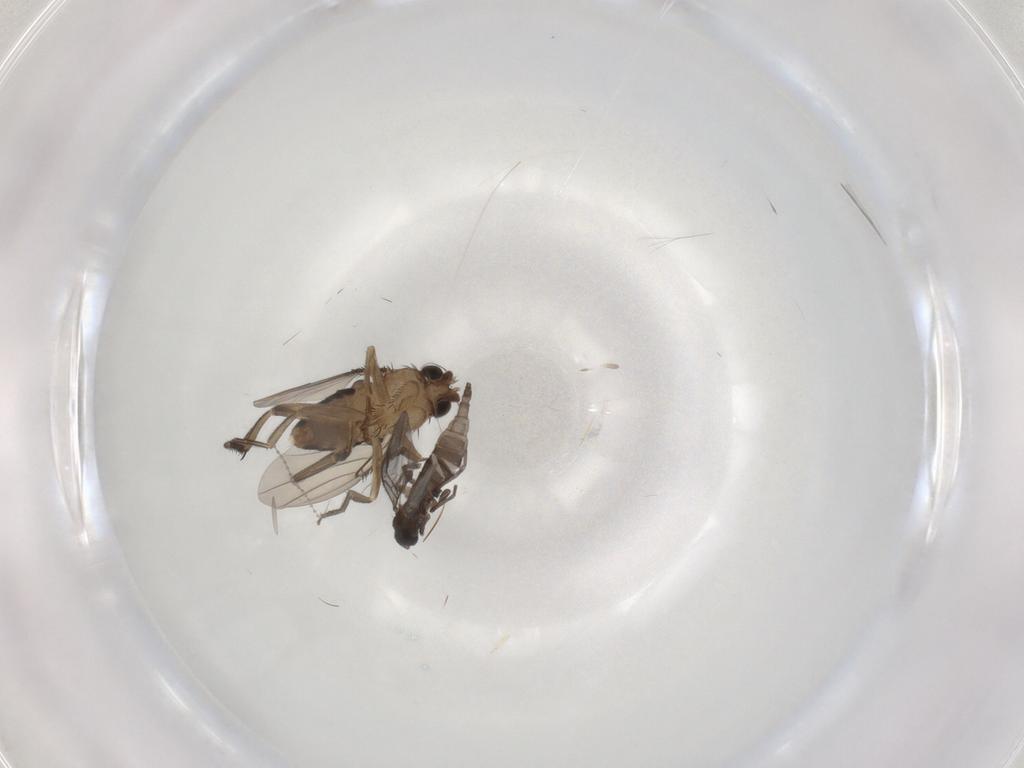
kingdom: Animalia
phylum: Arthropoda
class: Insecta
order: Diptera
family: Phoridae
